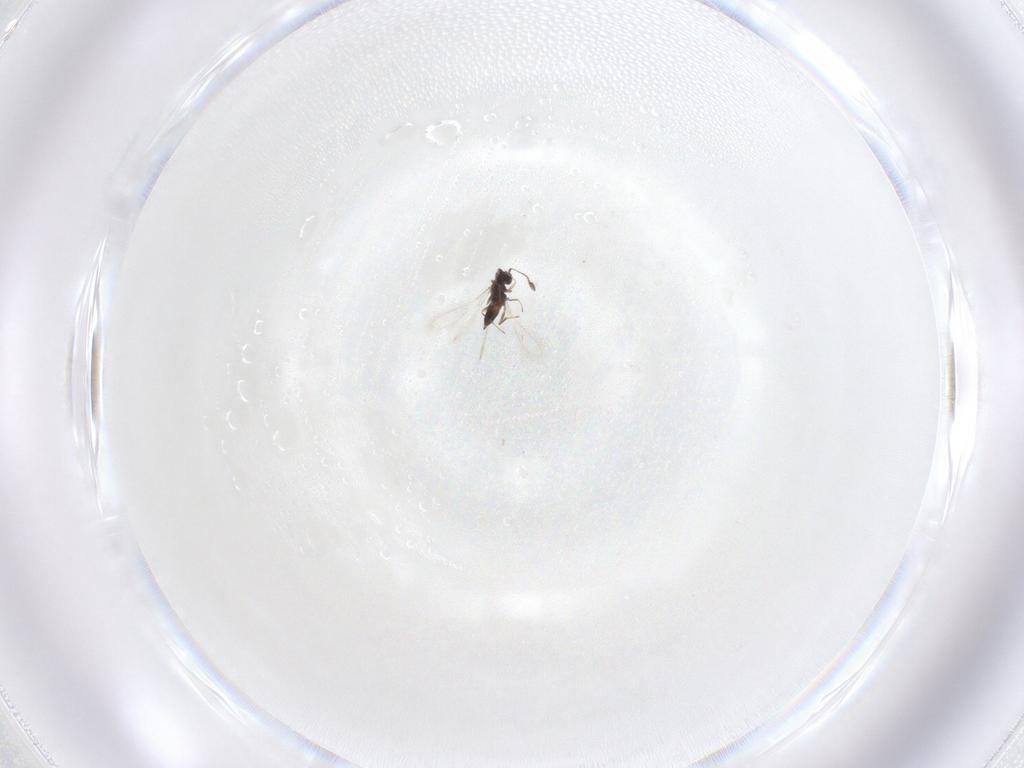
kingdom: Animalia
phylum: Arthropoda
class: Insecta
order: Hymenoptera
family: Mymaridae
